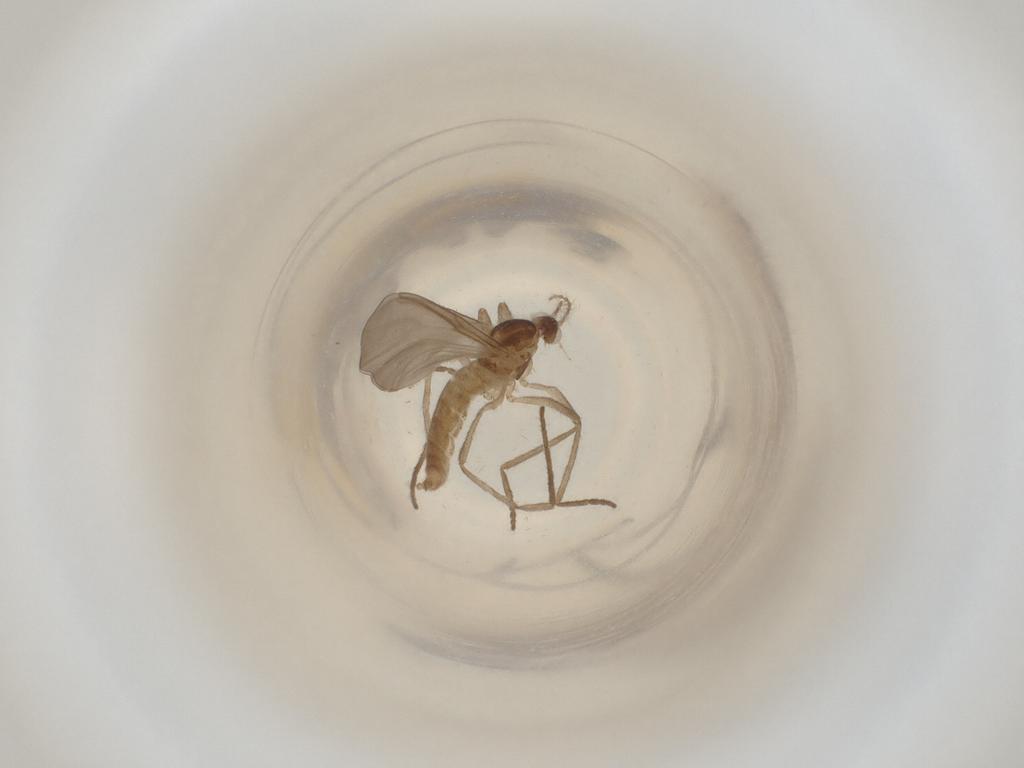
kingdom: Animalia
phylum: Arthropoda
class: Insecta
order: Diptera
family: Cecidomyiidae
